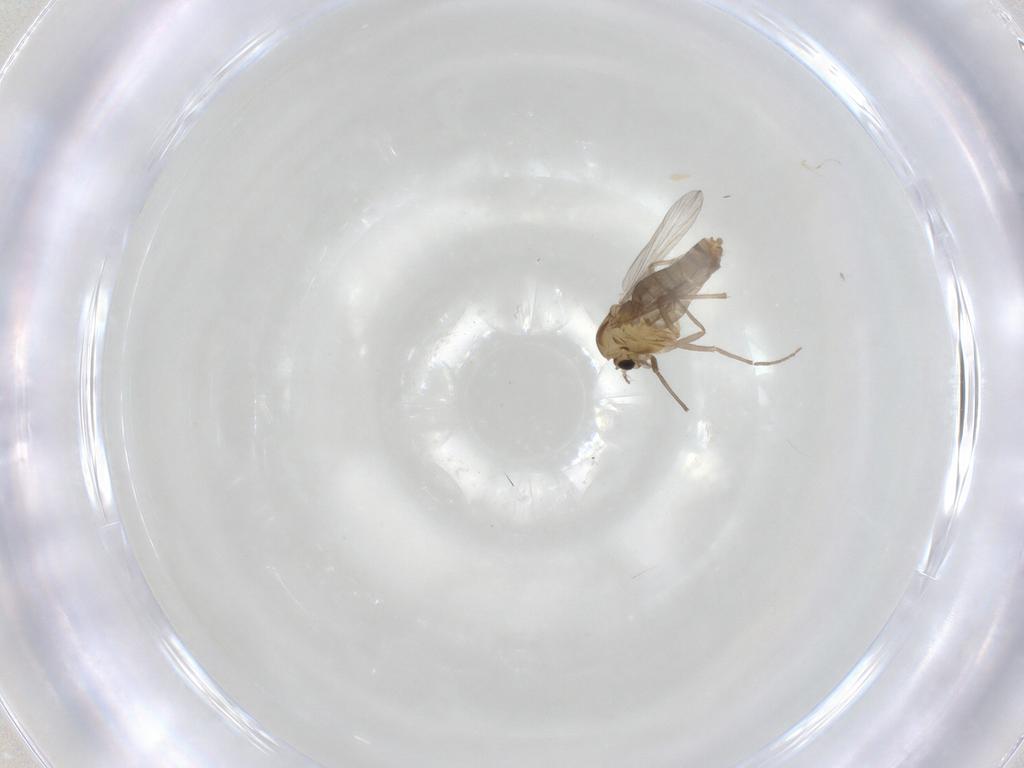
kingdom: Animalia
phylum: Arthropoda
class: Insecta
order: Diptera
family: Chironomidae
